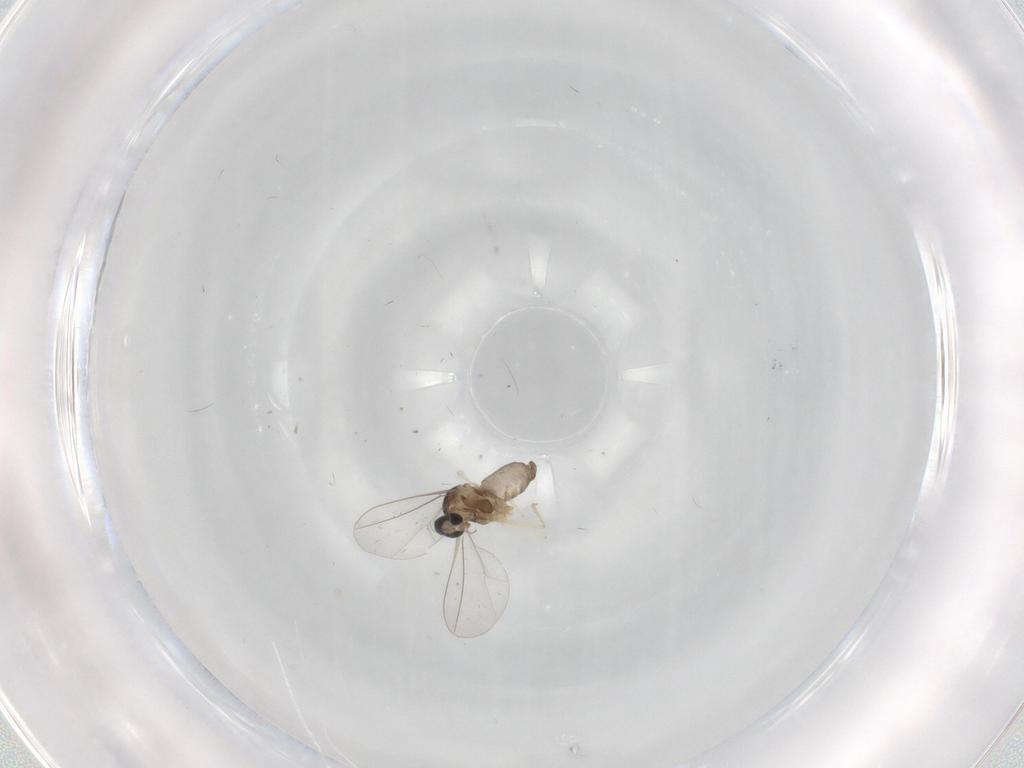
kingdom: Animalia
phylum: Arthropoda
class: Insecta
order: Diptera
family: Cecidomyiidae
